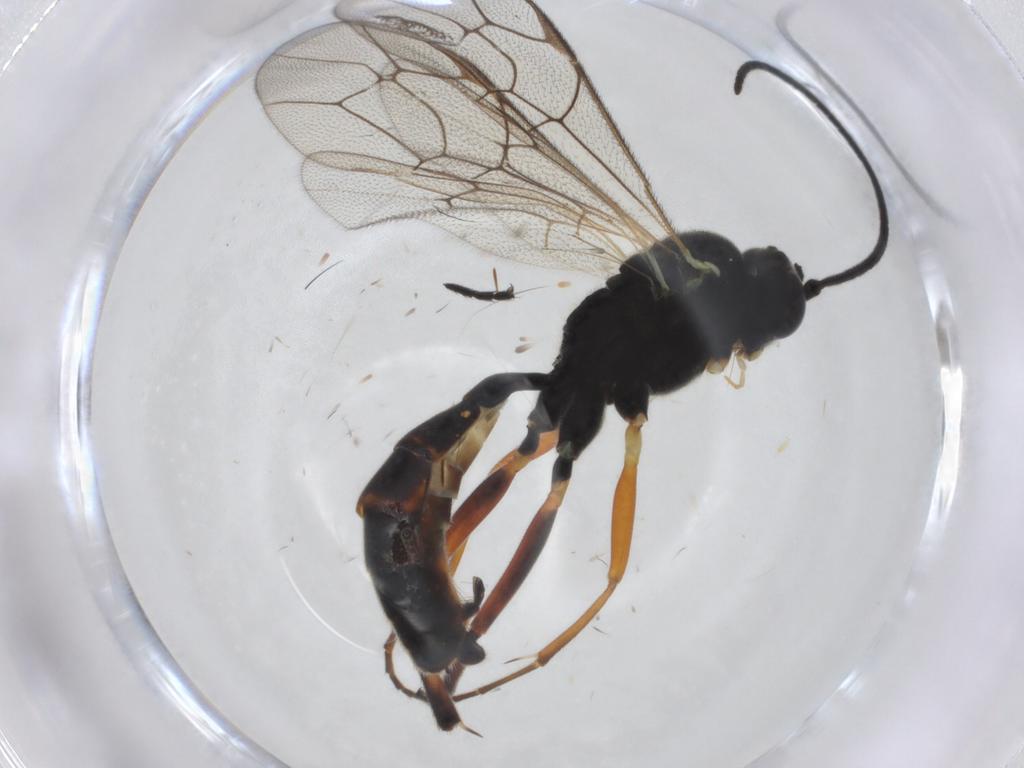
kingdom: Animalia
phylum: Arthropoda
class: Insecta
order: Hymenoptera
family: Ichneumonidae
